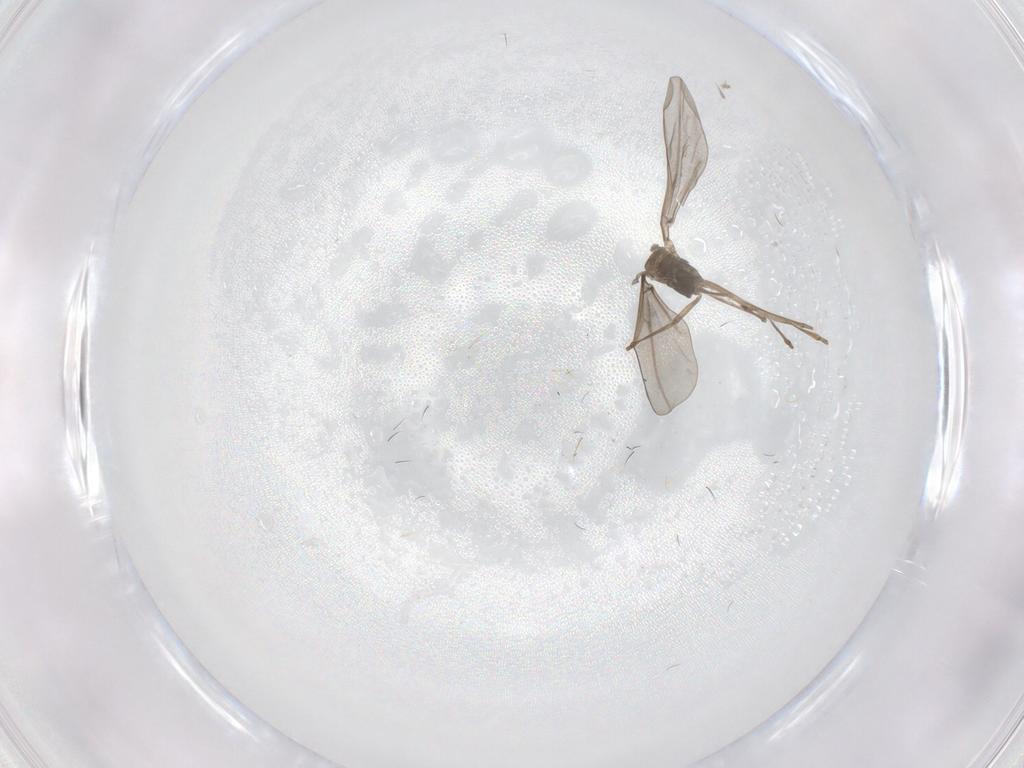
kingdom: Animalia
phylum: Arthropoda
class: Insecta
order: Diptera
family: Cecidomyiidae
